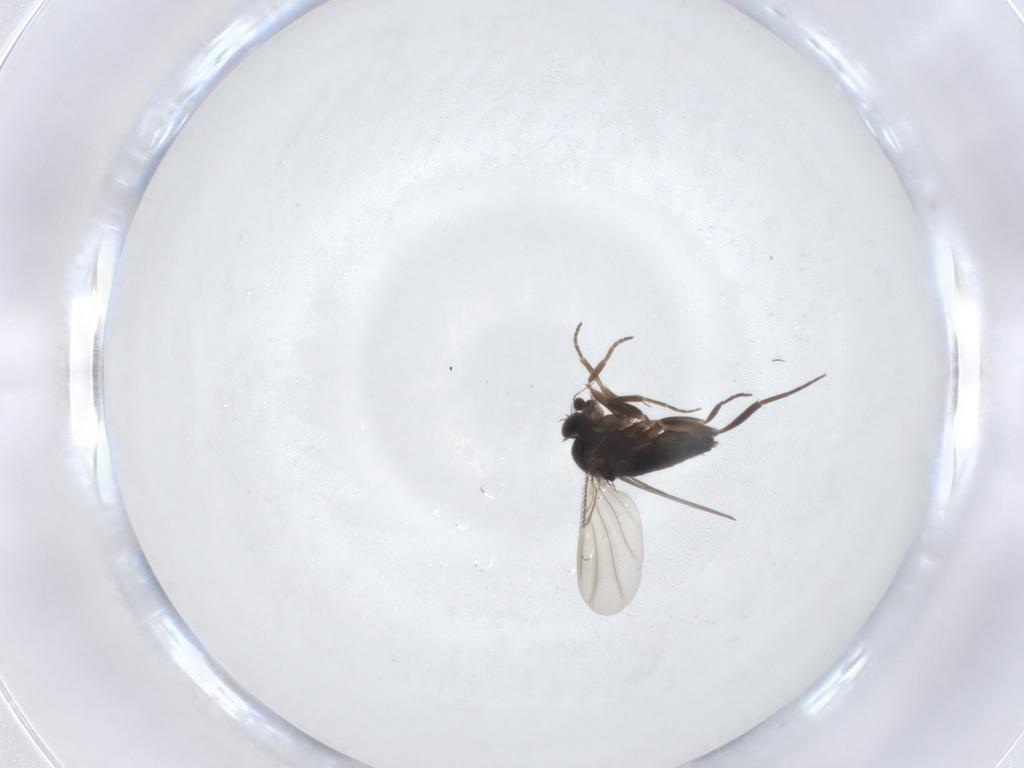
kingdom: Animalia
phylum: Arthropoda
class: Insecta
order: Diptera
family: Phoridae
